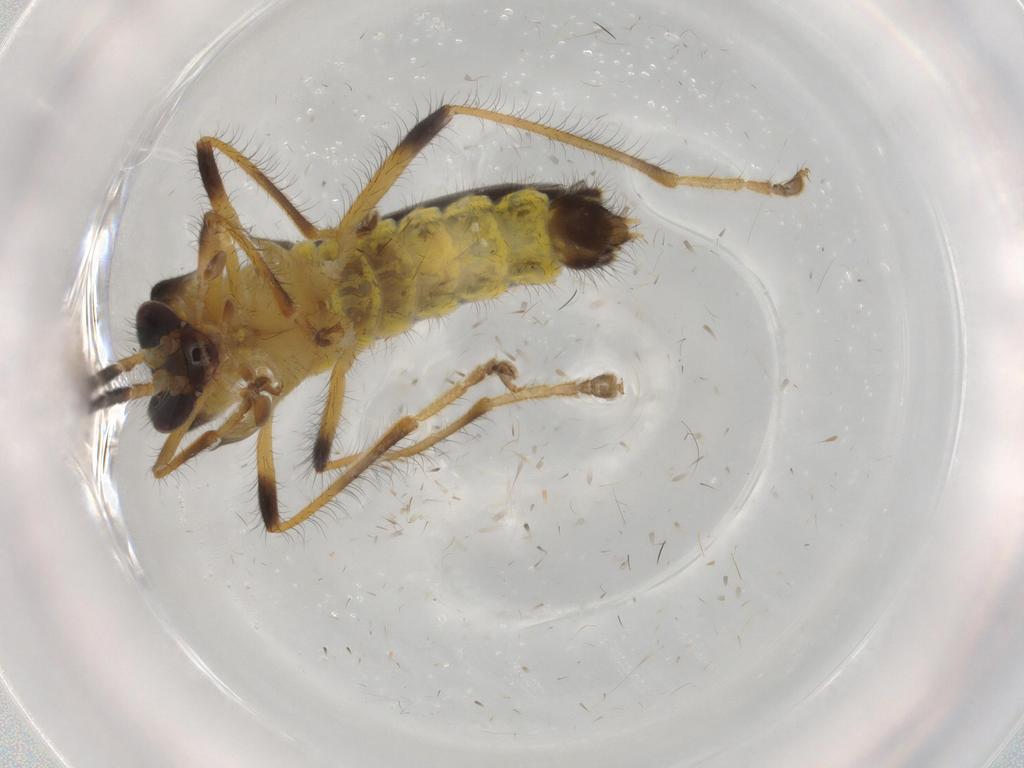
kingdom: Animalia
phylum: Arthropoda
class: Insecta
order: Coleoptera
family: Cantharidae
